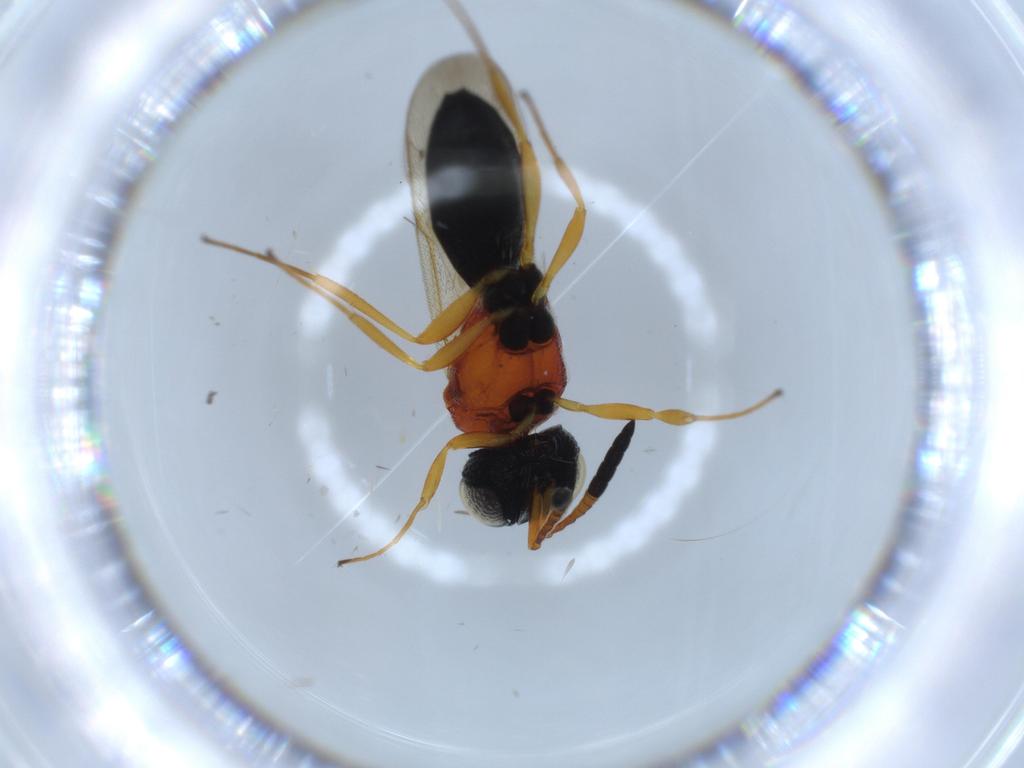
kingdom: Animalia
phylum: Arthropoda
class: Insecta
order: Hymenoptera
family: Scelionidae
